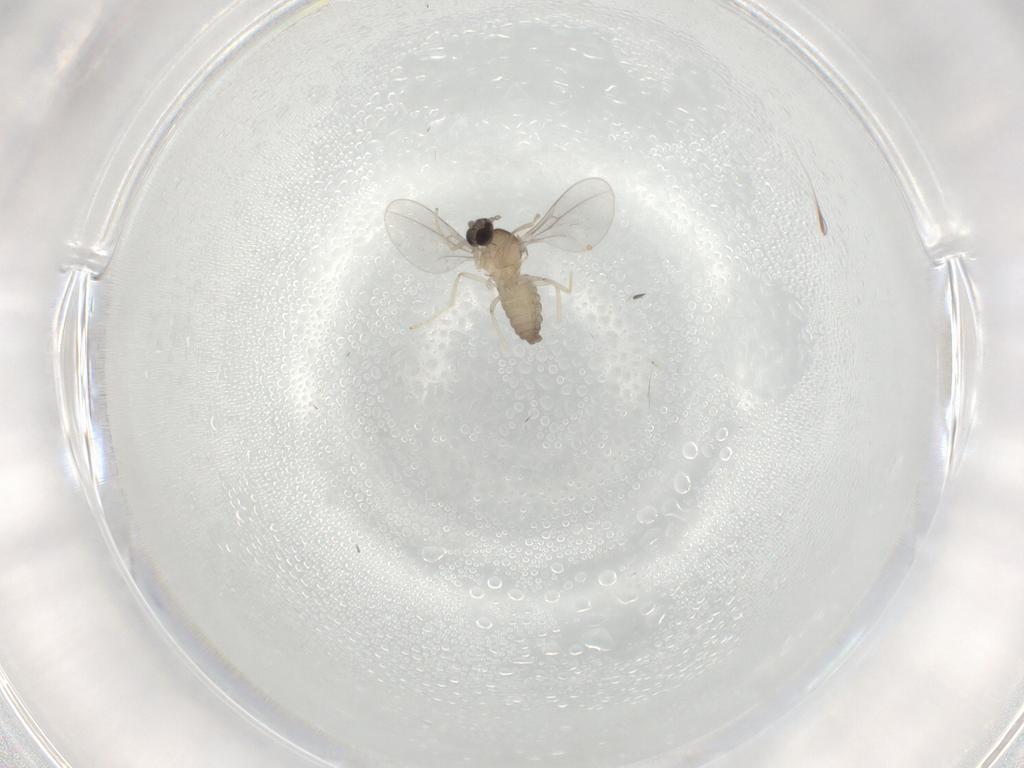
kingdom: Animalia
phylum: Arthropoda
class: Insecta
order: Diptera
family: Cecidomyiidae
